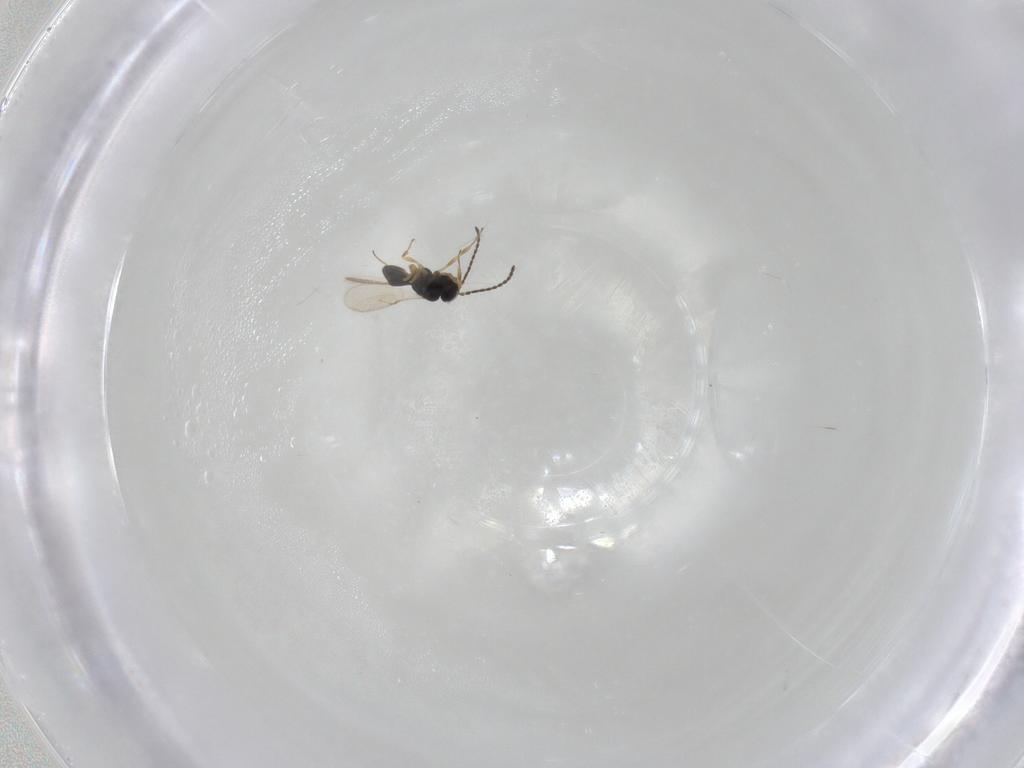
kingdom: Animalia
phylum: Arthropoda
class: Insecta
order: Hymenoptera
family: Scelionidae
